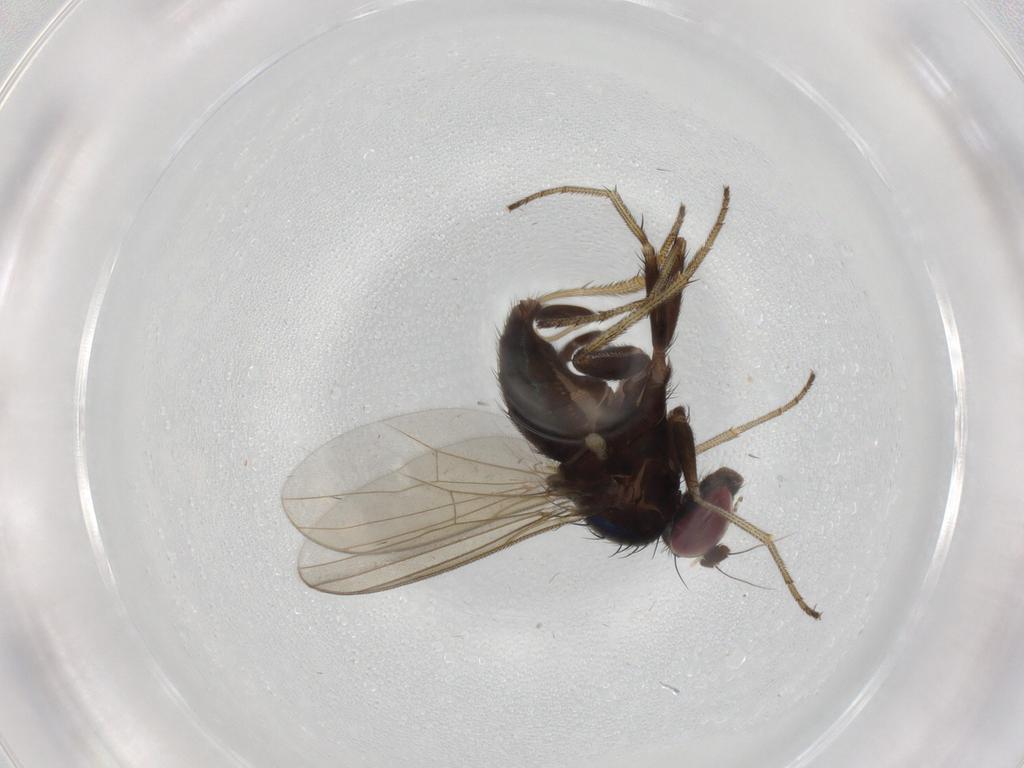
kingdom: Animalia
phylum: Arthropoda
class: Insecta
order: Diptera
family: Dolichopodidae
